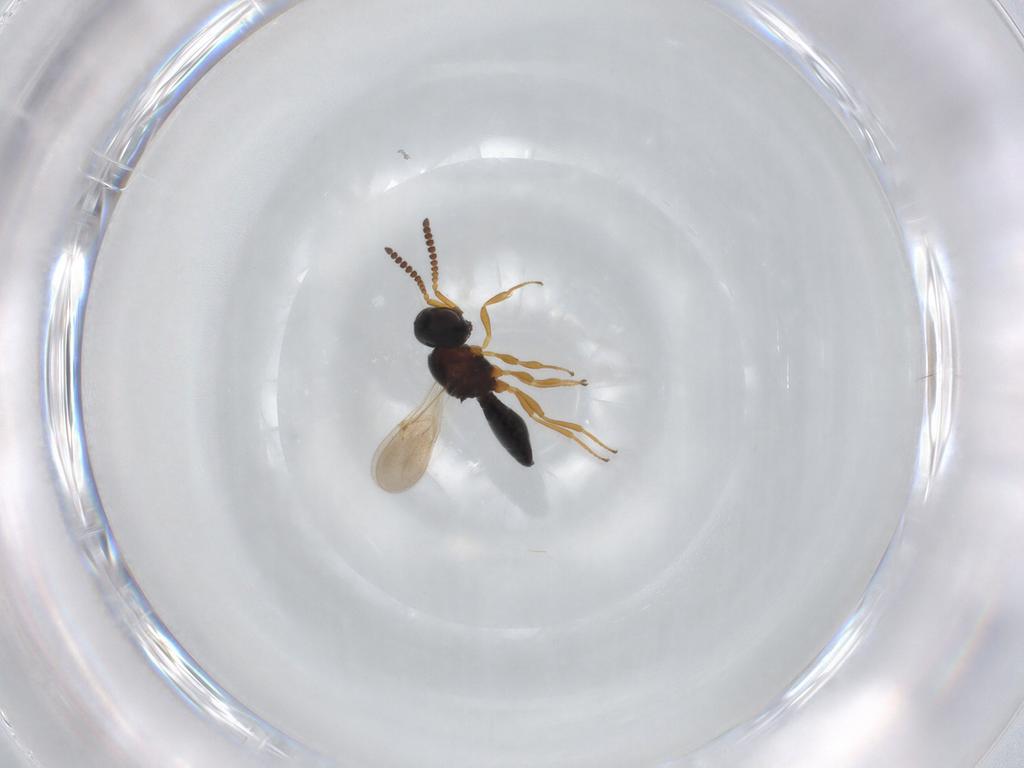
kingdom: Animalia
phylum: Arthropoda
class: Insecta
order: Hymenoptera
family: Scelionidae
